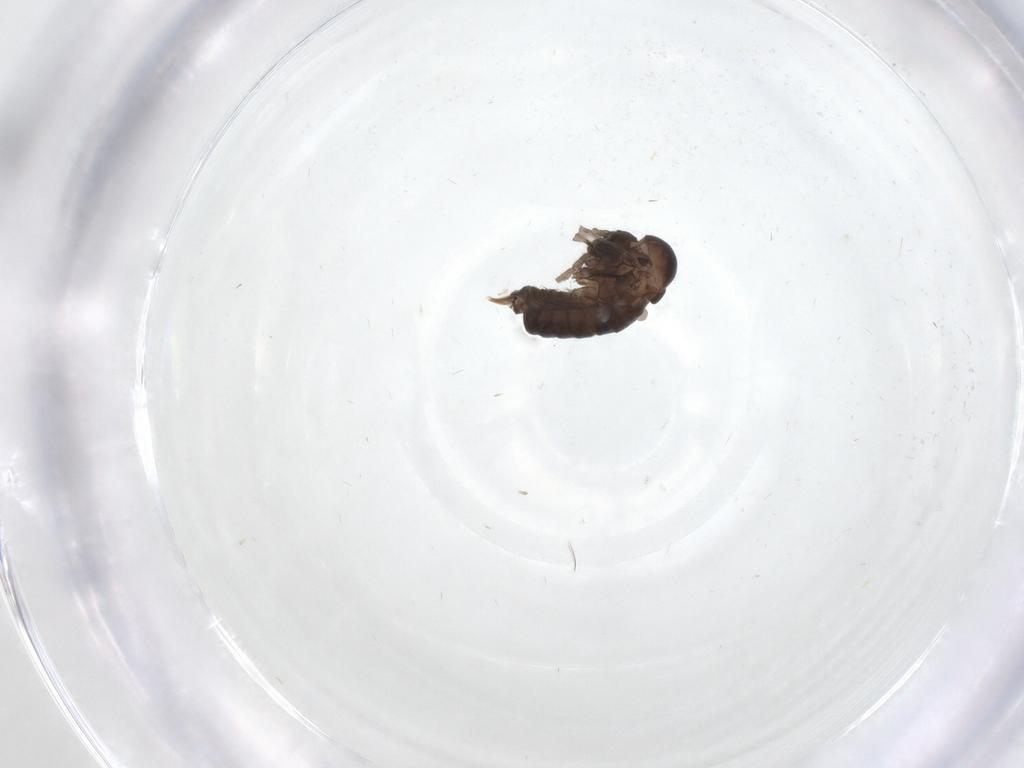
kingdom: Animalia
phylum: Arthropoda
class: Insecta
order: Diptera
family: Psychodidae
